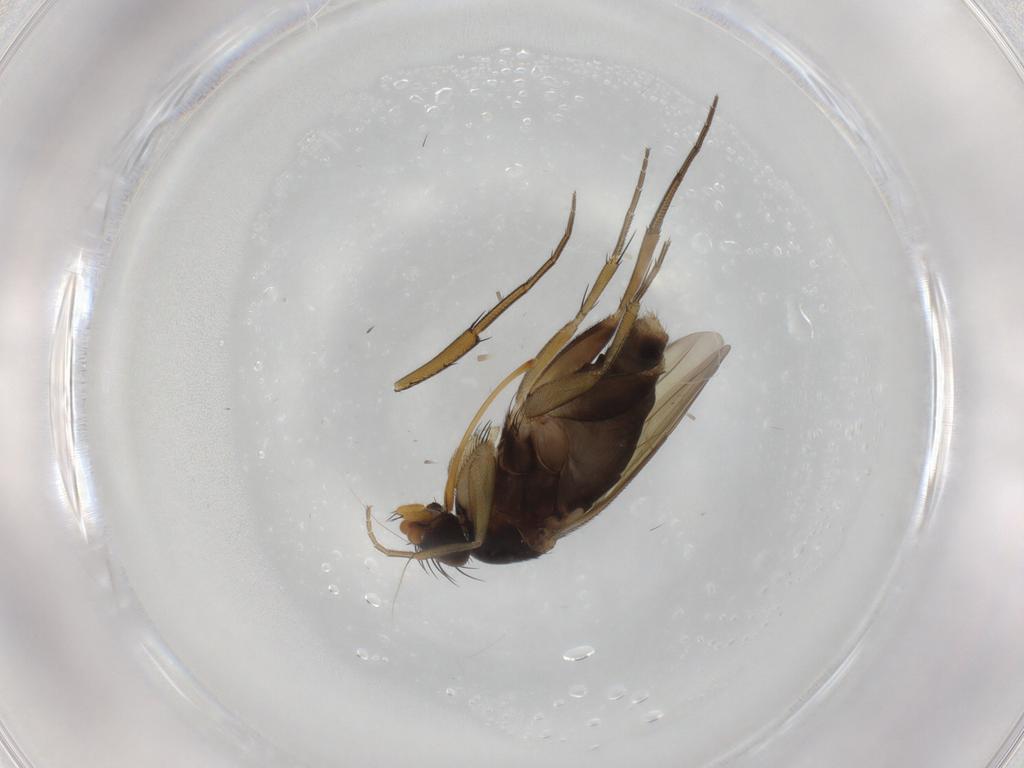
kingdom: Animalia
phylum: Arthropoda
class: Insecta
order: Diptera
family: Phoridae
